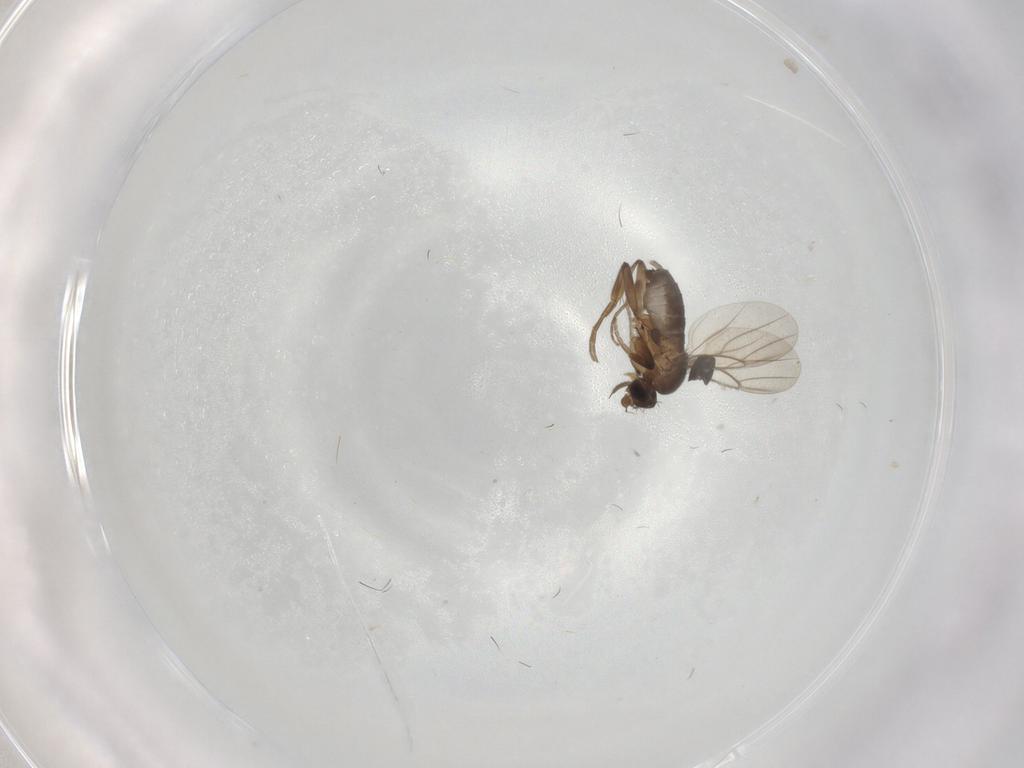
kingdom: Animalia
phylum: Arthropoda
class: Insecta
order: Diptera
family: Keroplatidae
